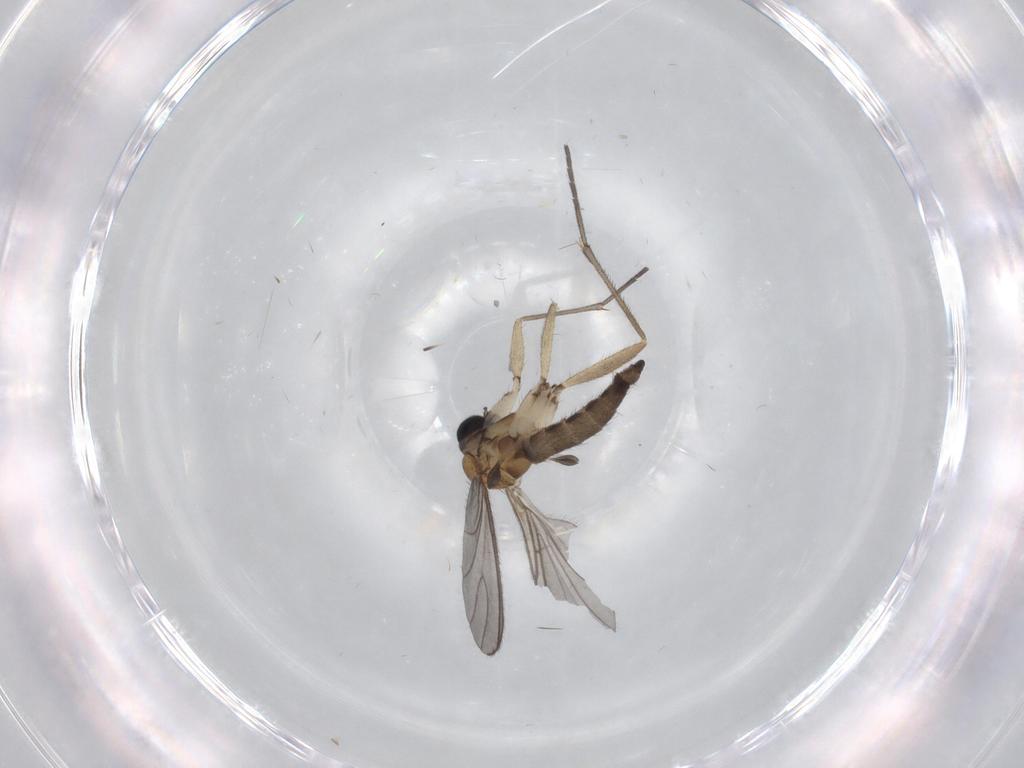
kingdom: Animalia
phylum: Arthropoda
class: Insecta
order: Diptera
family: Sciaridae
